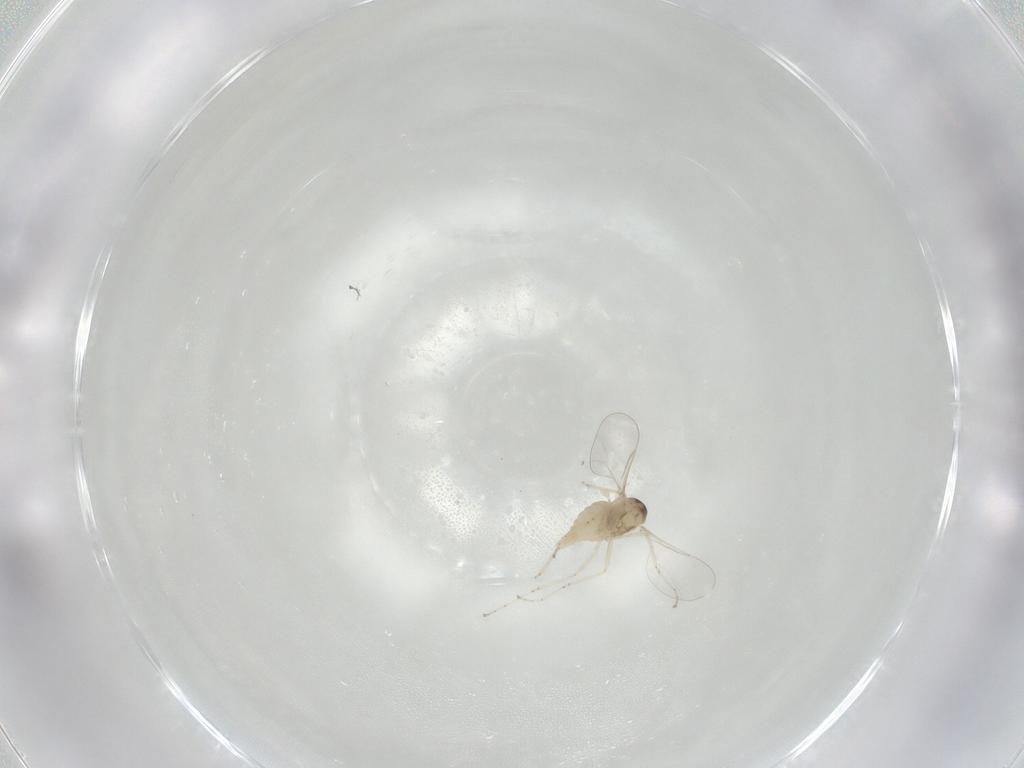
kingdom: Animalia
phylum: Arthropoda
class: Insecta
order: Diptera
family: Cecidomyiidae
